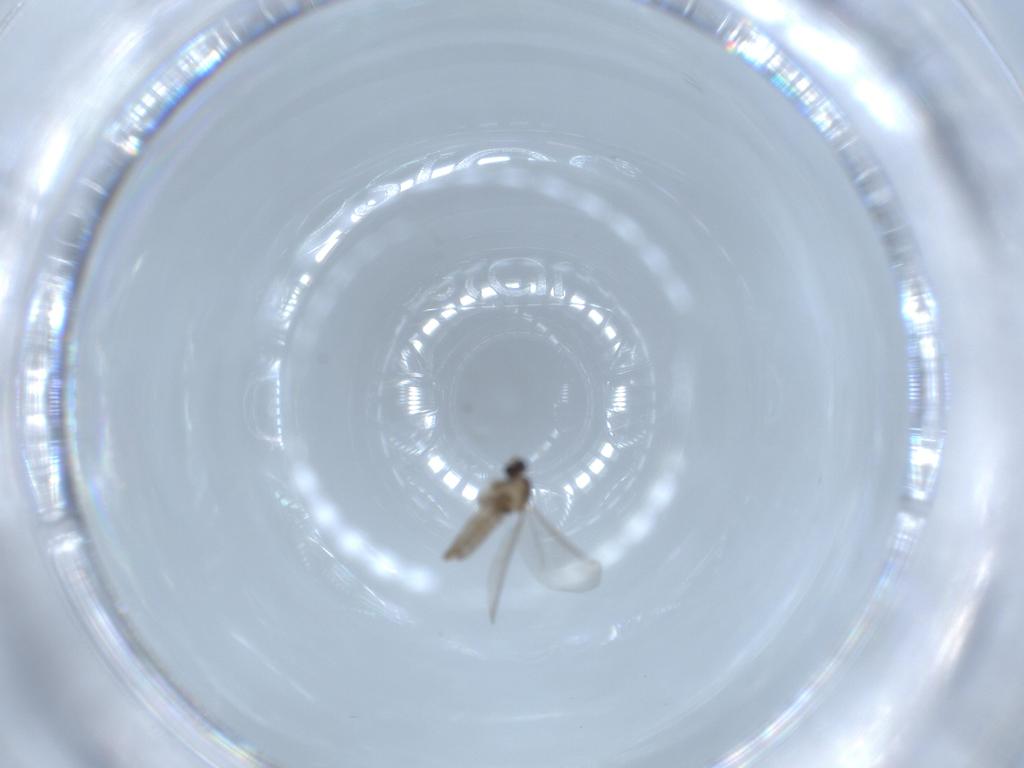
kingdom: Animalia
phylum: Arthropoda
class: Insecta
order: Diptera
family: Cecidomyiidae
